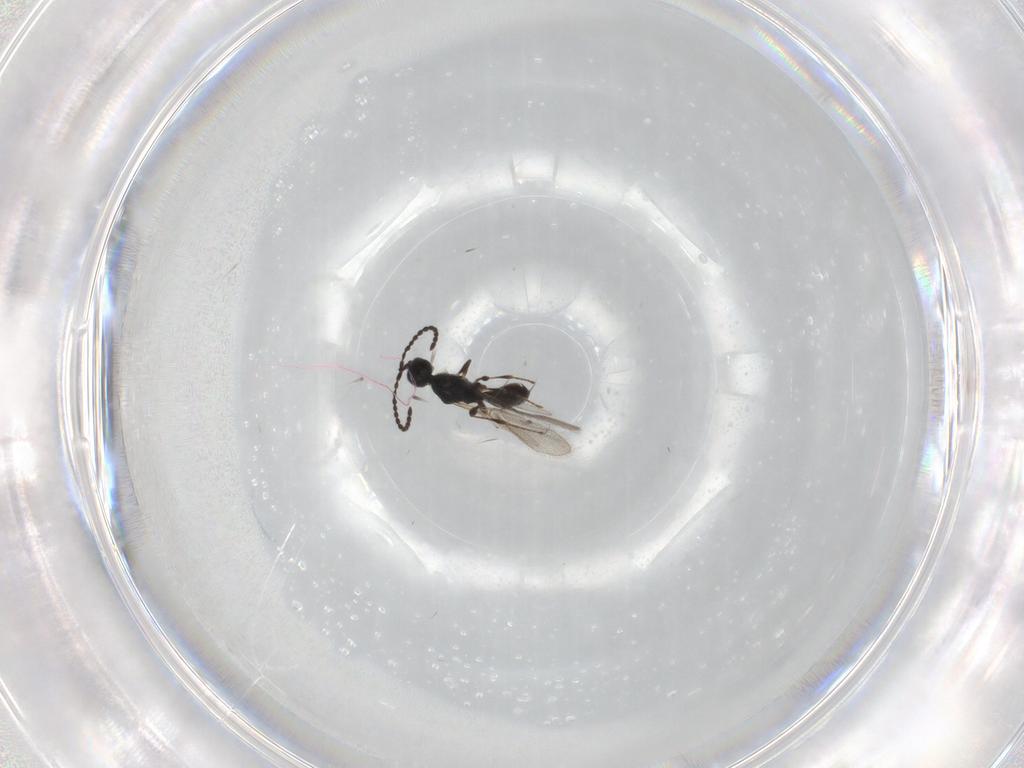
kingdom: Animalia
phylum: Arthropoda
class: Insecta
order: Hymenoptera
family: Diapriidae
